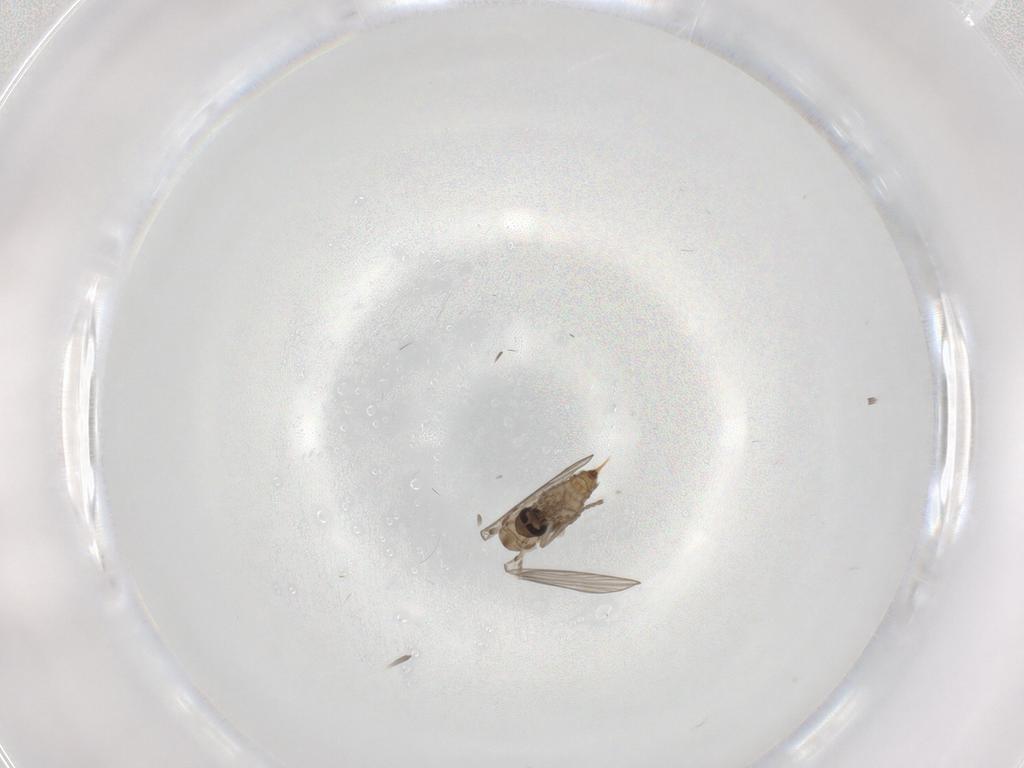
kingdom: Animalia
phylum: Arthropoda
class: Insecta
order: Diptera
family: Psychodidae
